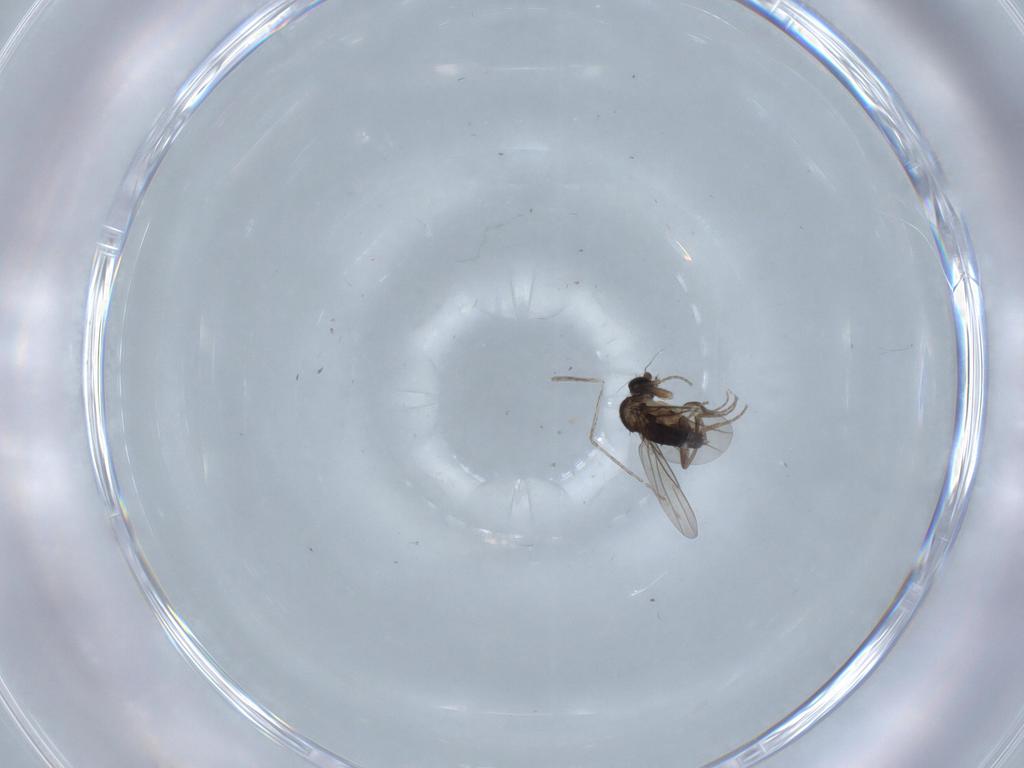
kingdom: Animalia
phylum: Arthropoda
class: Insecta
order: Diptera
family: Phoridae
